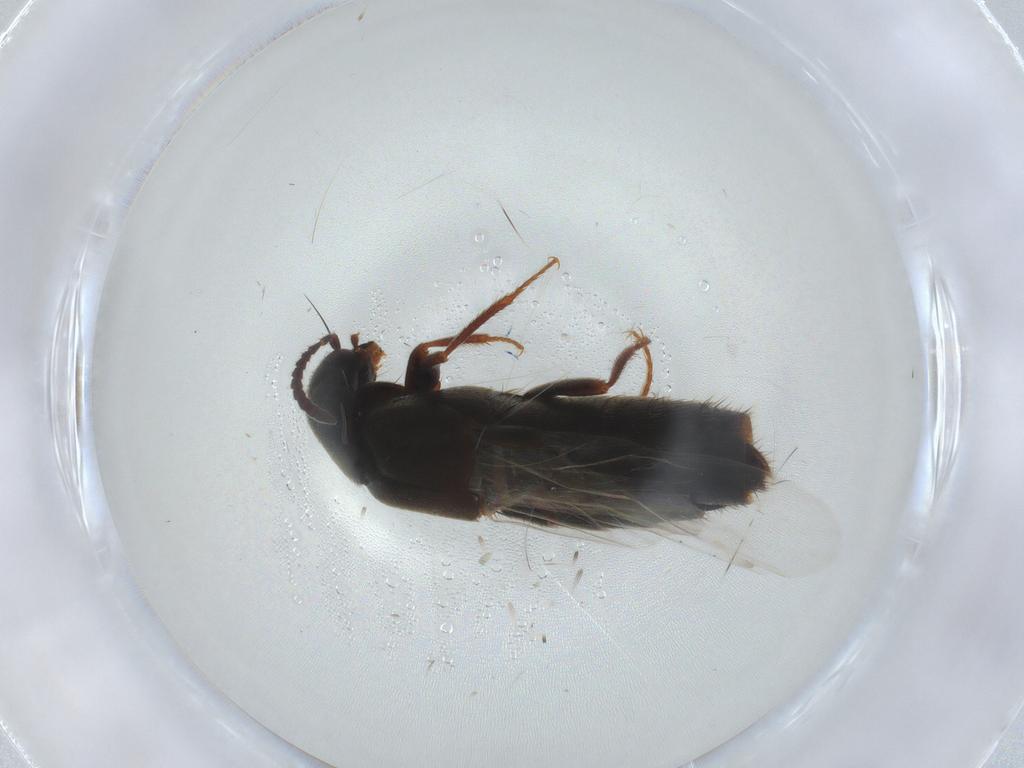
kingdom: Animalia
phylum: Arthropoda
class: Insecta
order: Coleoptera
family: Staphylinidae
